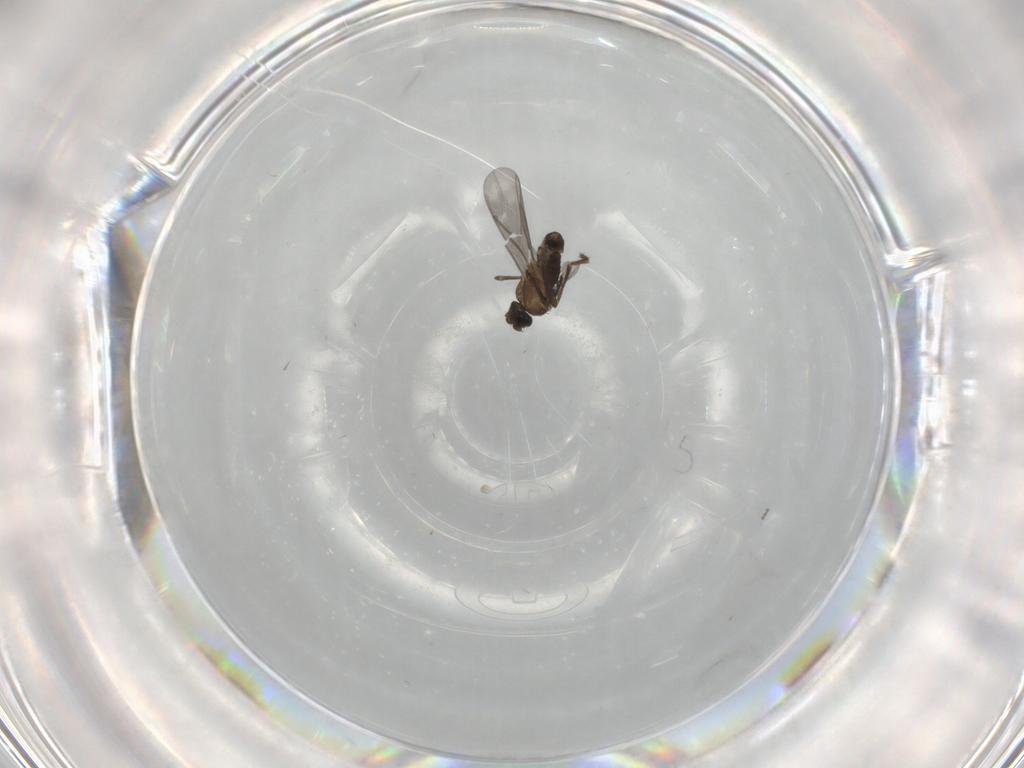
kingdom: Animalia
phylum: Arthropoda
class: Insecta
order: Diptera
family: Phoridae
